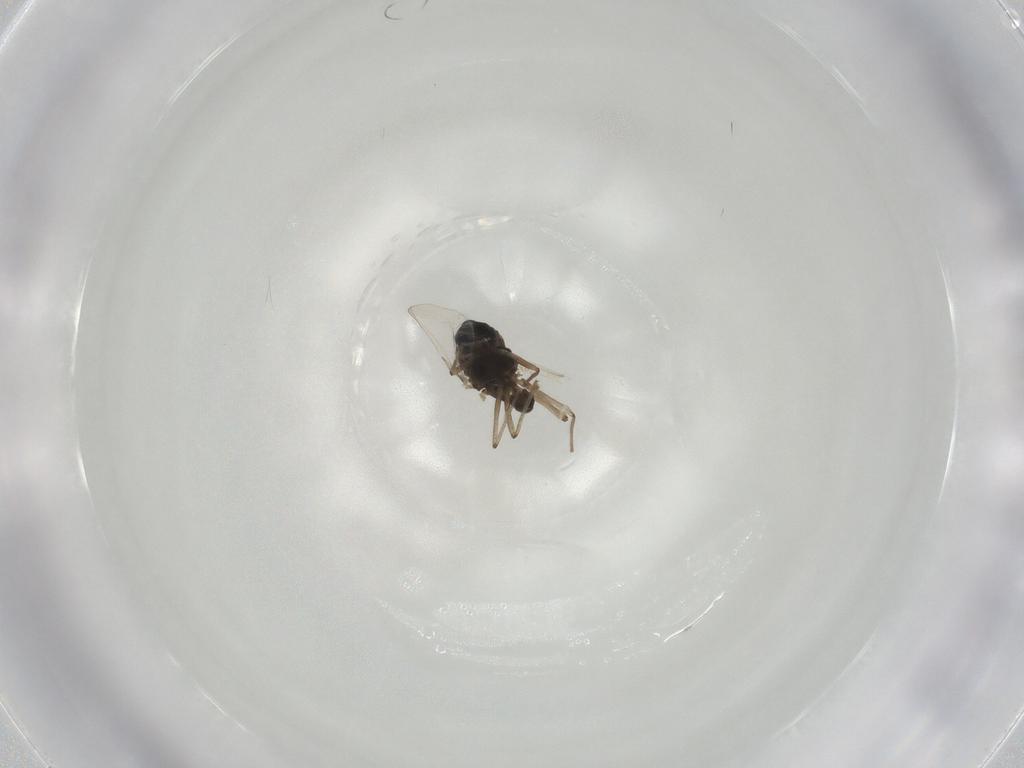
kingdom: Animalia
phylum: Arthropoda
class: Insecta
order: Diptera
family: Chironomidae
